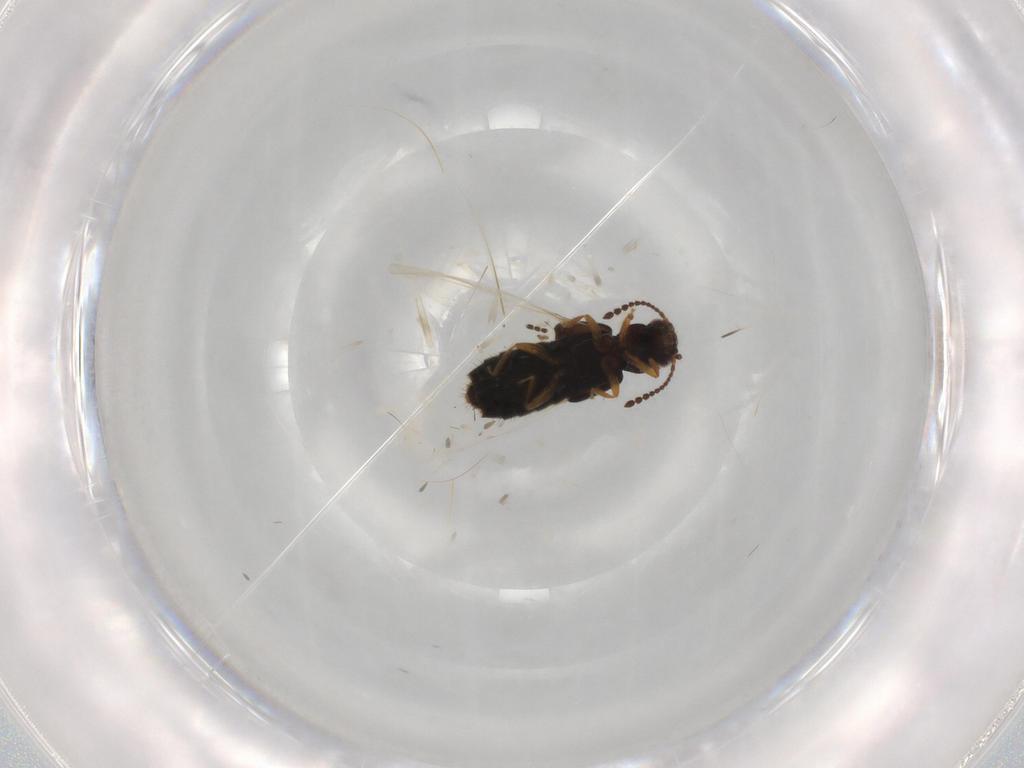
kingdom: Animalia
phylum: Arthropoda
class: Insecta
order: Coleoptera
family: Staphylinidae
